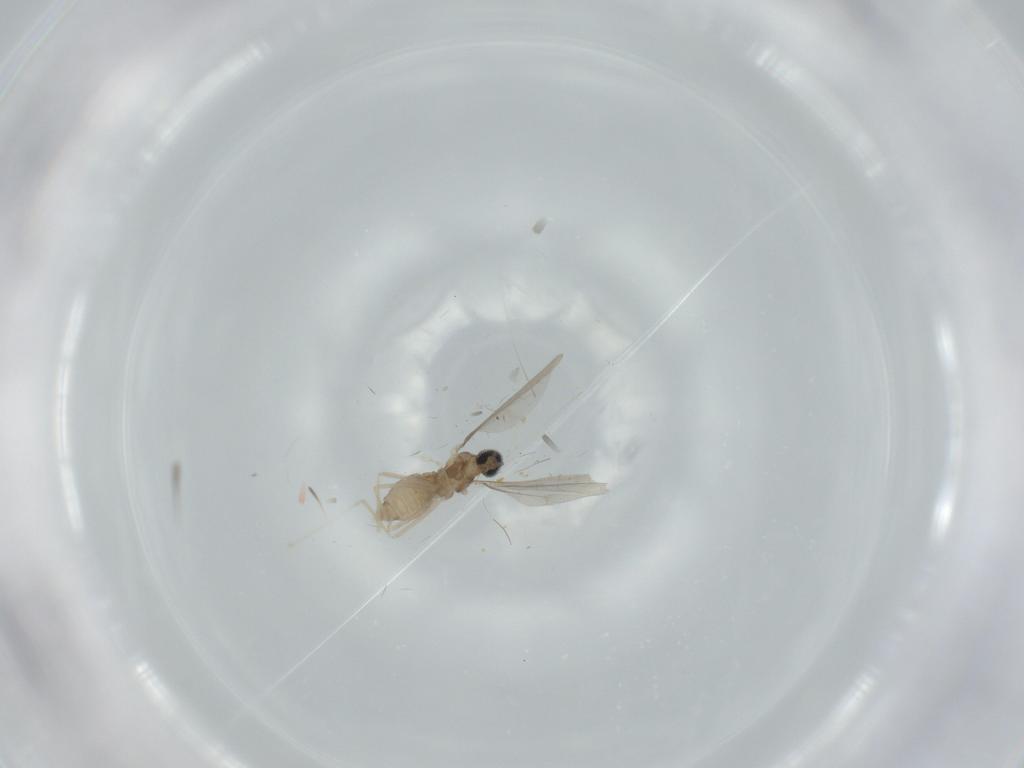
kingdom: Animalia
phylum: Arthropoda
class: Insecta
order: Diptera
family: Cecidomyiidae
